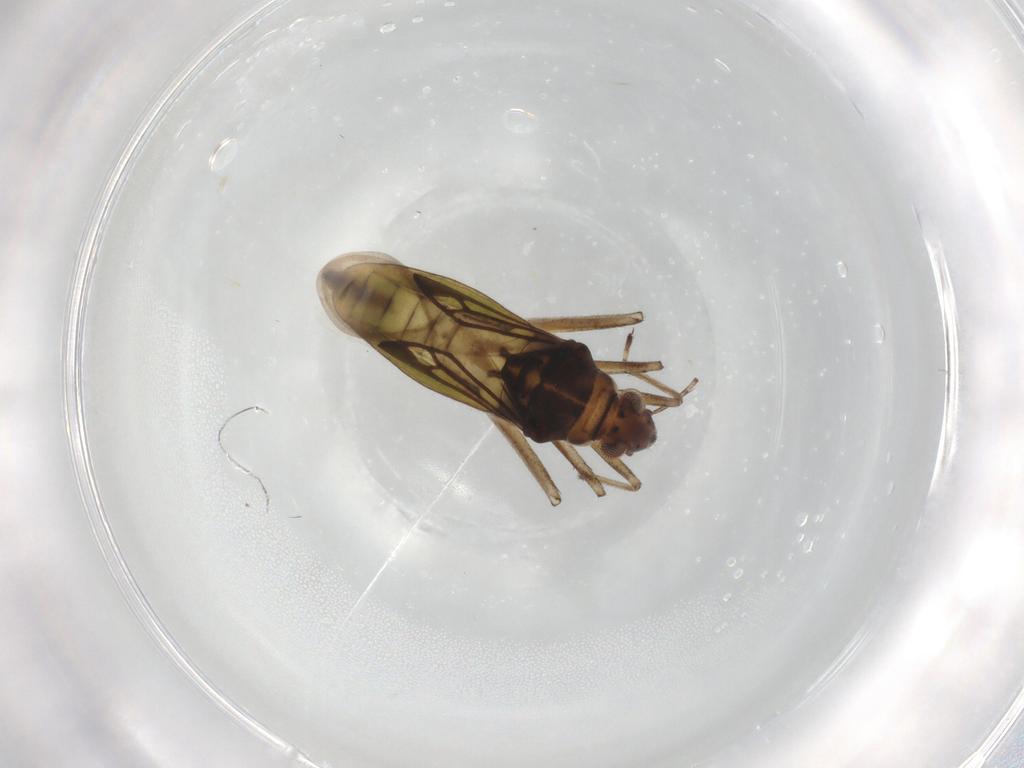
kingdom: Animalia
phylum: Arthropoda
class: Insecta
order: Hemiptera
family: Mesoveliidae
